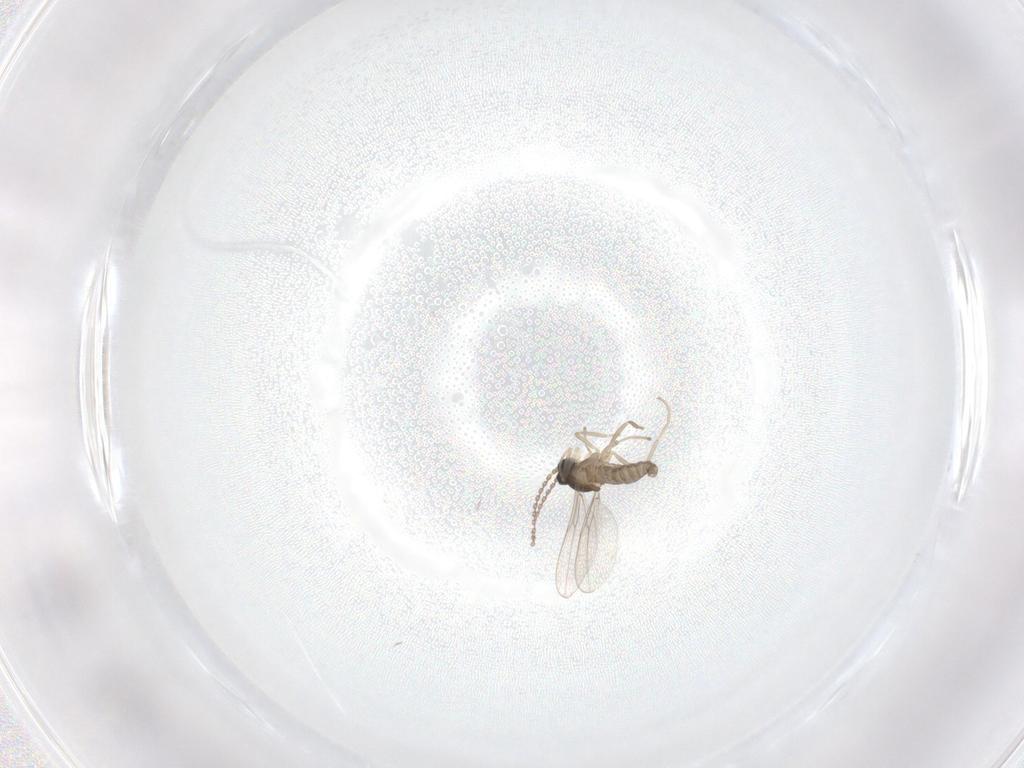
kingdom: Animalia
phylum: Arthropoda
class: Insecta
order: Diptera
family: Cecidomyiidae
